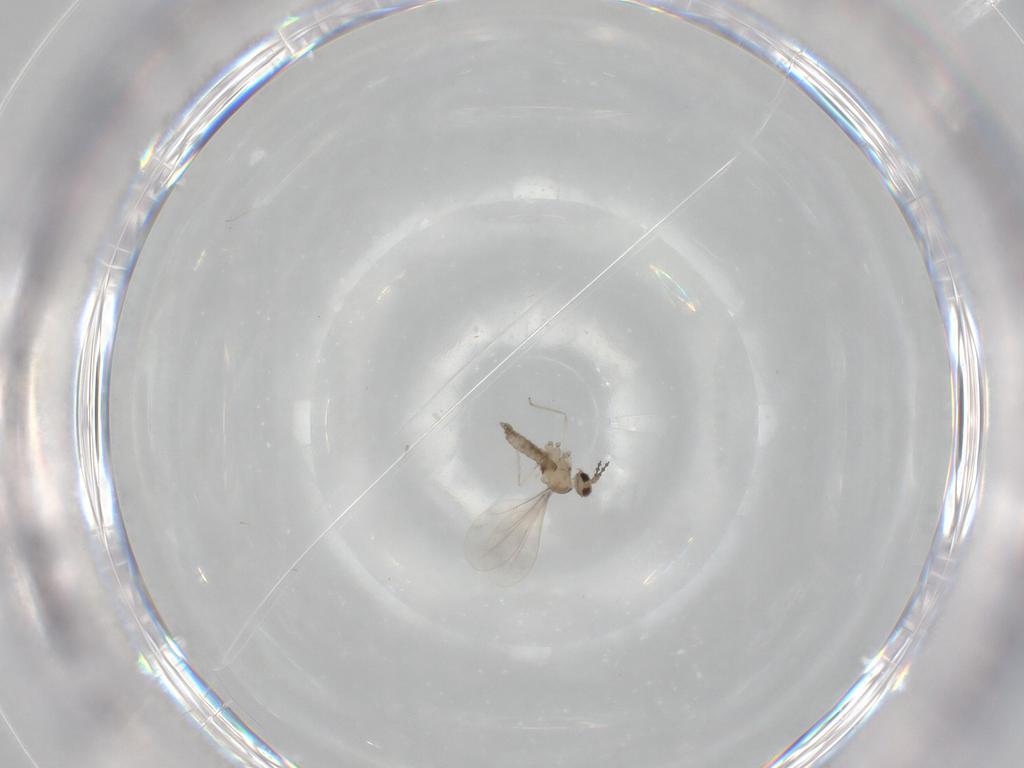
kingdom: Animalia
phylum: Arthropoda
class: Insecta
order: Diptera
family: Cecidomyiidae
